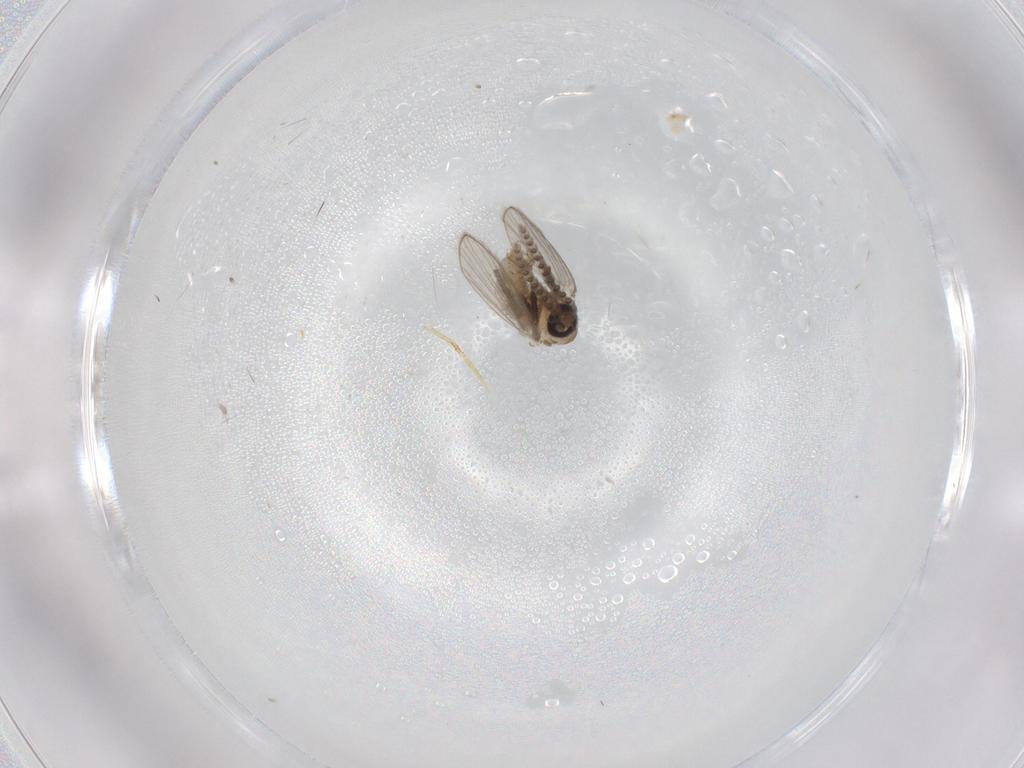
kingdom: Animalia
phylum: Arthropoda
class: Insecta
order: Diptera
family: Psychodidae
